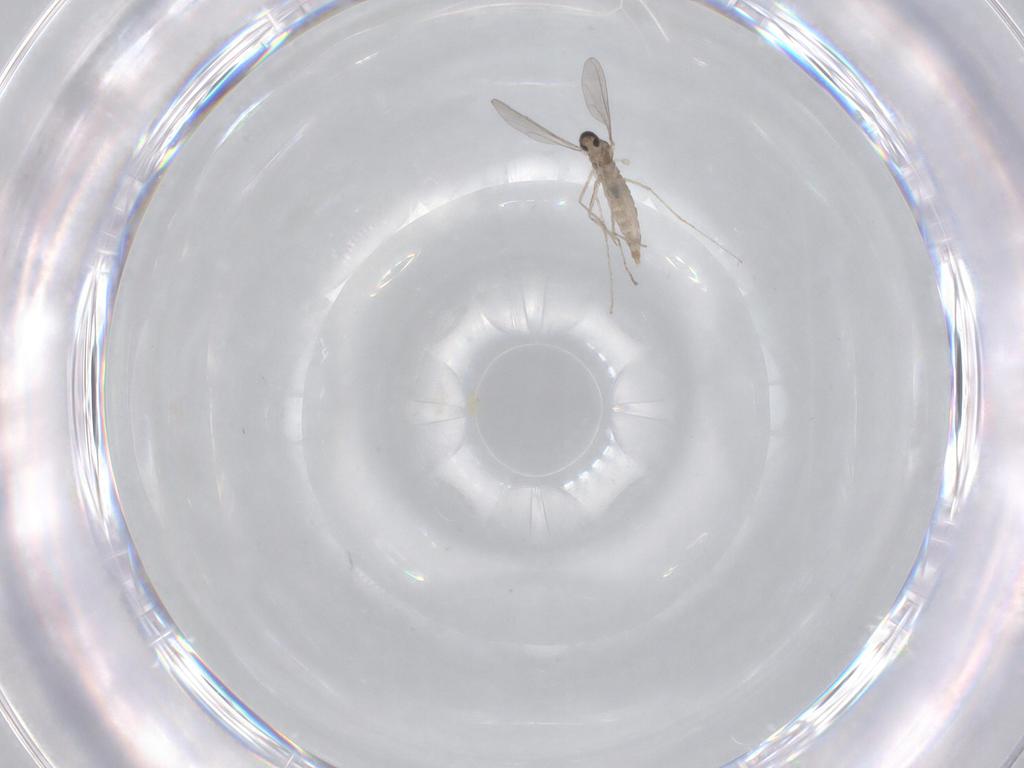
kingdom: Animalia
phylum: Arthropoda
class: Insecta
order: Diptera
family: Chironomidae
